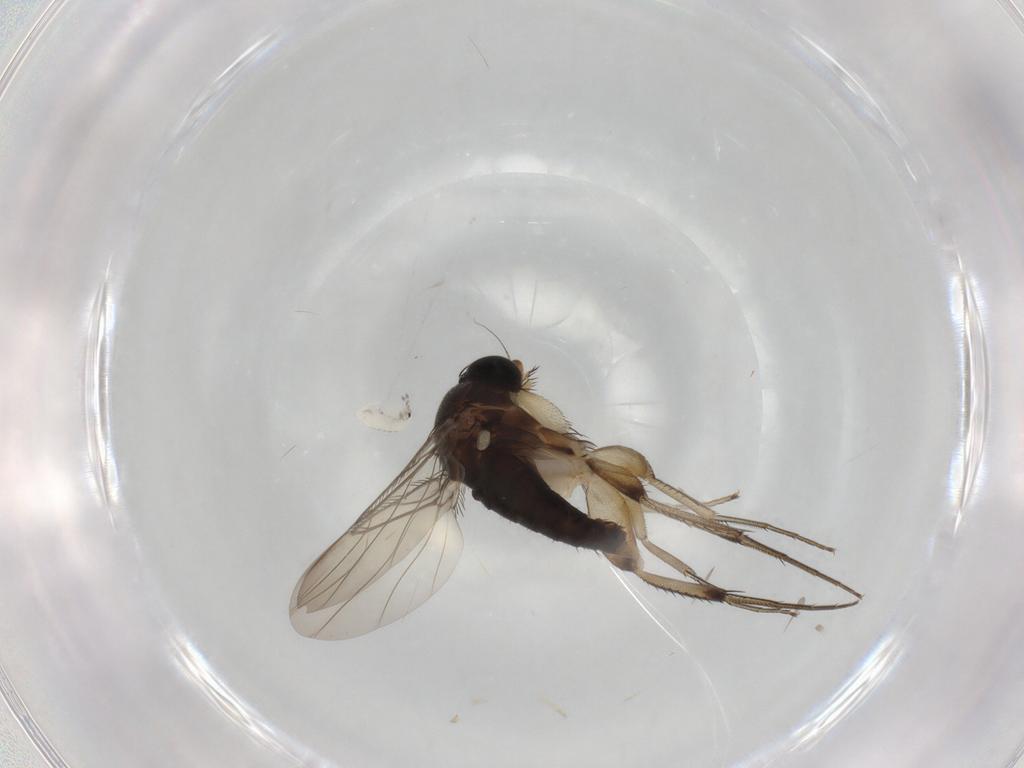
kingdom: Animalia
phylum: Arthropoda
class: Insecta
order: Diptera
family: Phoridae
